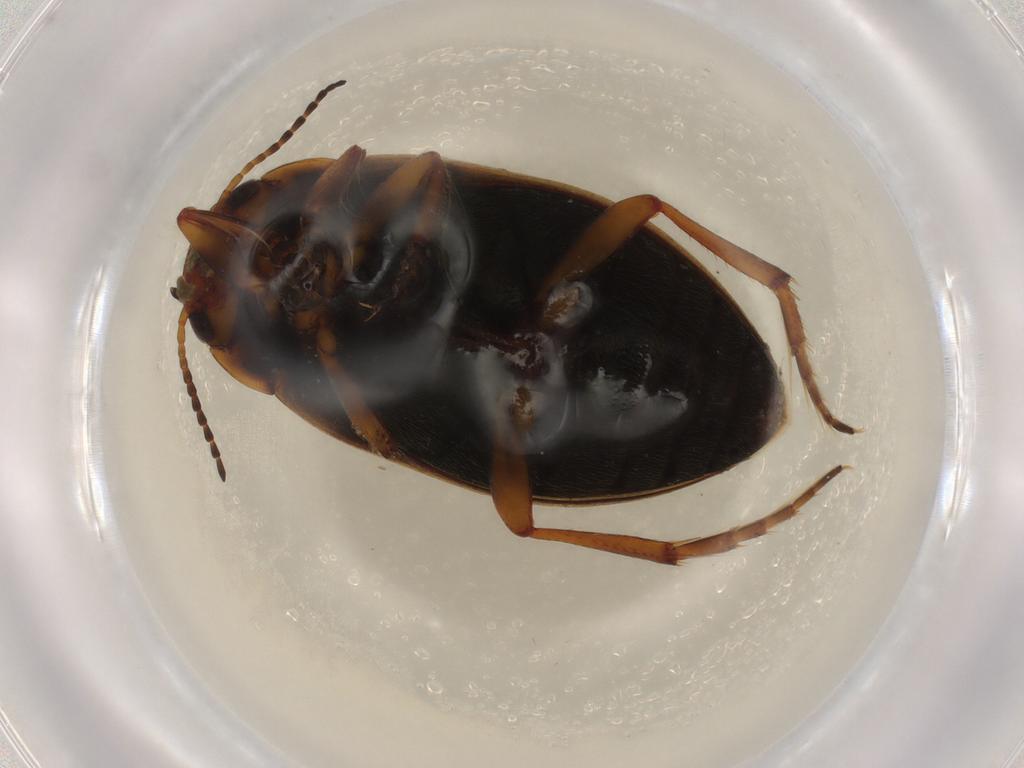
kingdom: Animalia
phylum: Arthropoda
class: Insecta
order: Coleoptera
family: Dytiscidae
